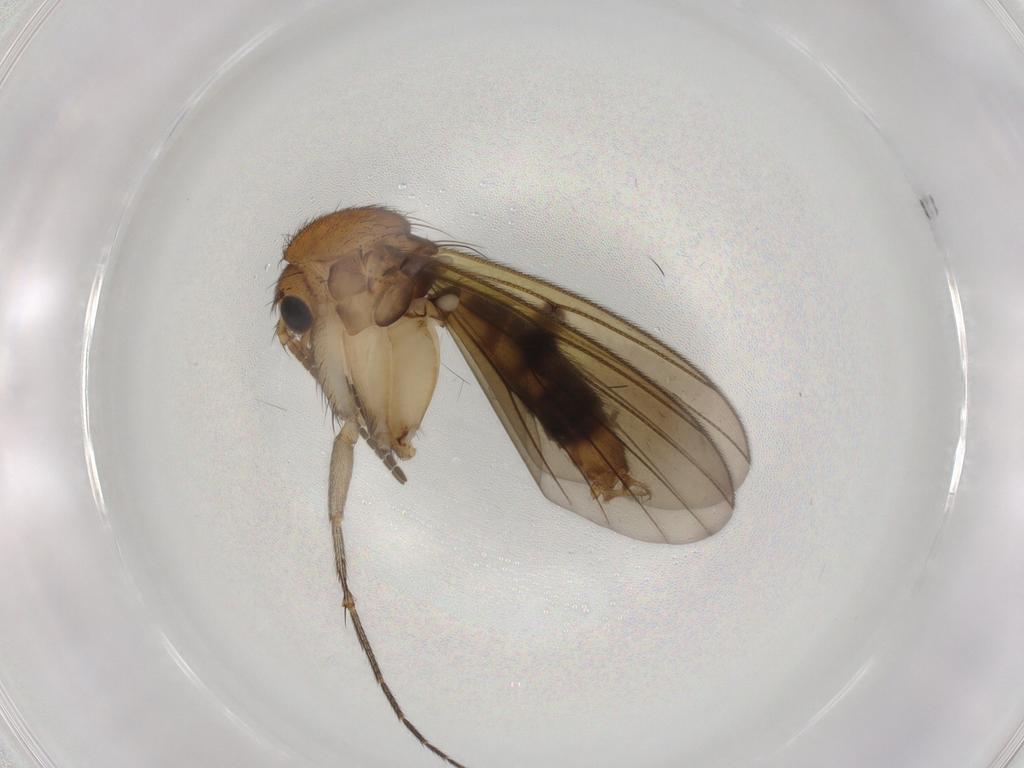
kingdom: Animalia
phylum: Arthropoda
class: Insecta
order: Diptera
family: Mycetophilidae
